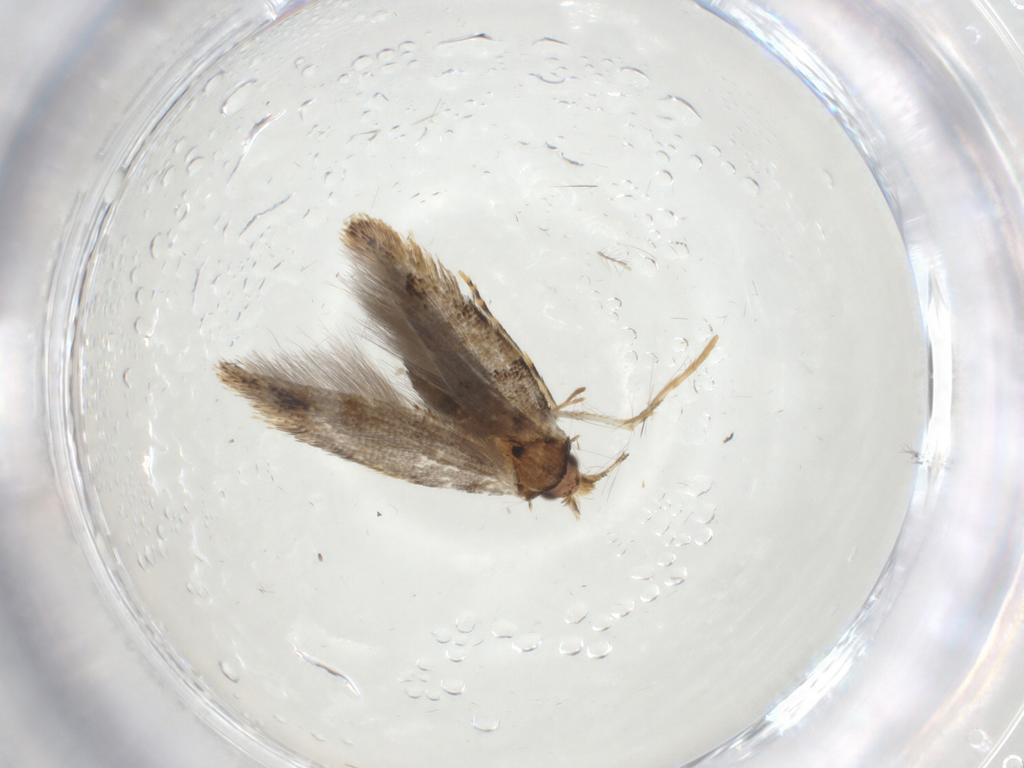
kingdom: Animalia
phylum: Arthropoda
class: Insecta
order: Lepidoptera
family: Tineidae
